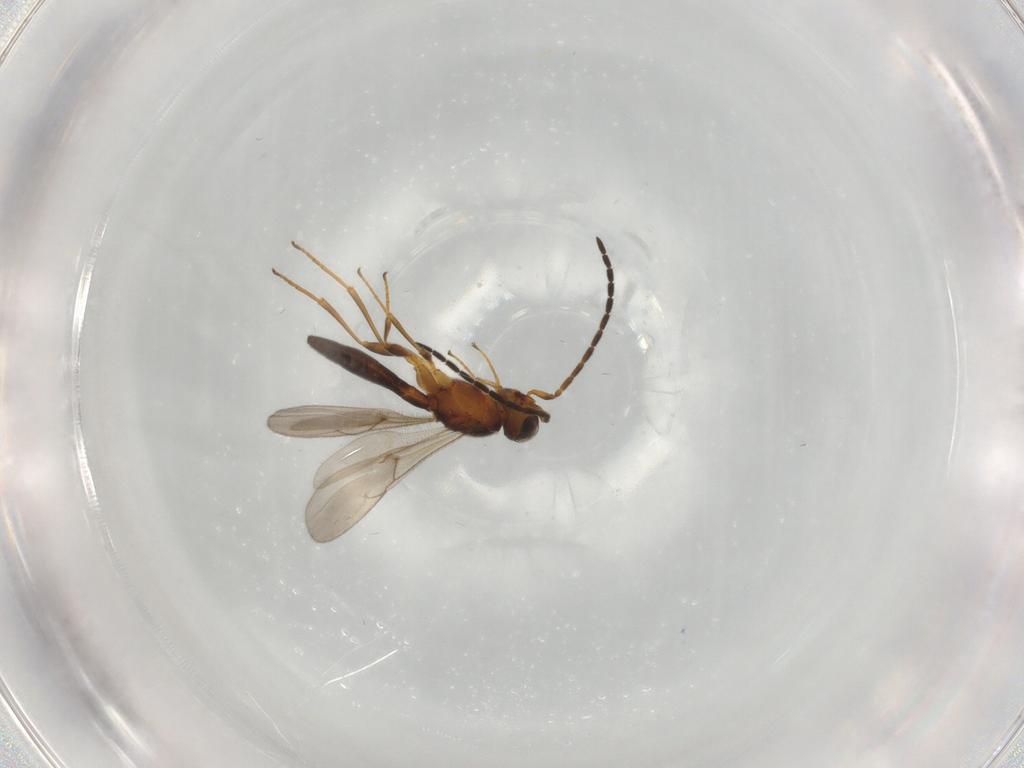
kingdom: Animalia
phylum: Arthropoda
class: Insecta
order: Hymenoptera
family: Scelionidae
